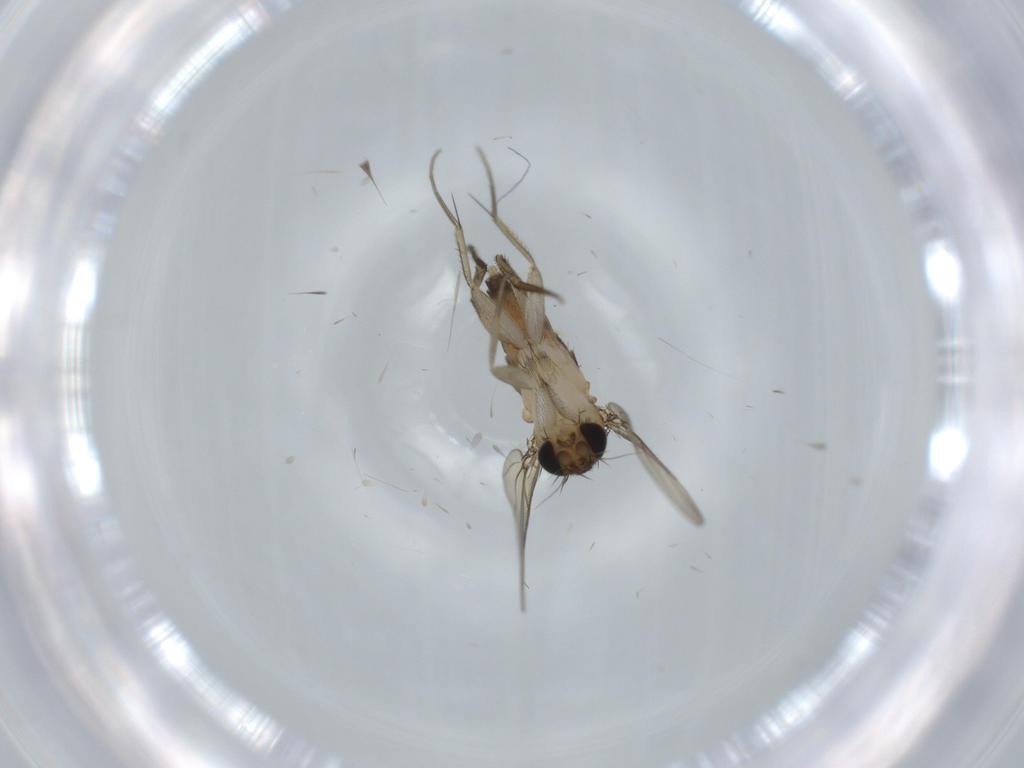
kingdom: Animalia
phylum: Arthropoda
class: Insecta
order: Diptera
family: Phoridae
